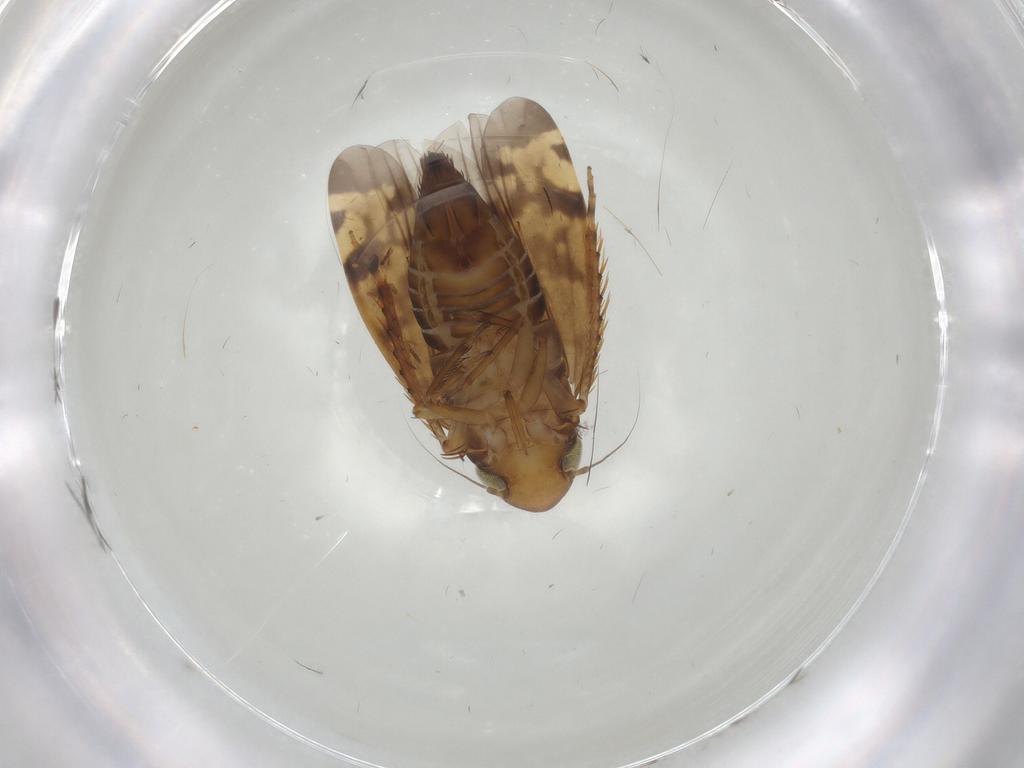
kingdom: Animalia
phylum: Arthropoda
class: Insecta
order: Hemiptera
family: Cicadellidae
